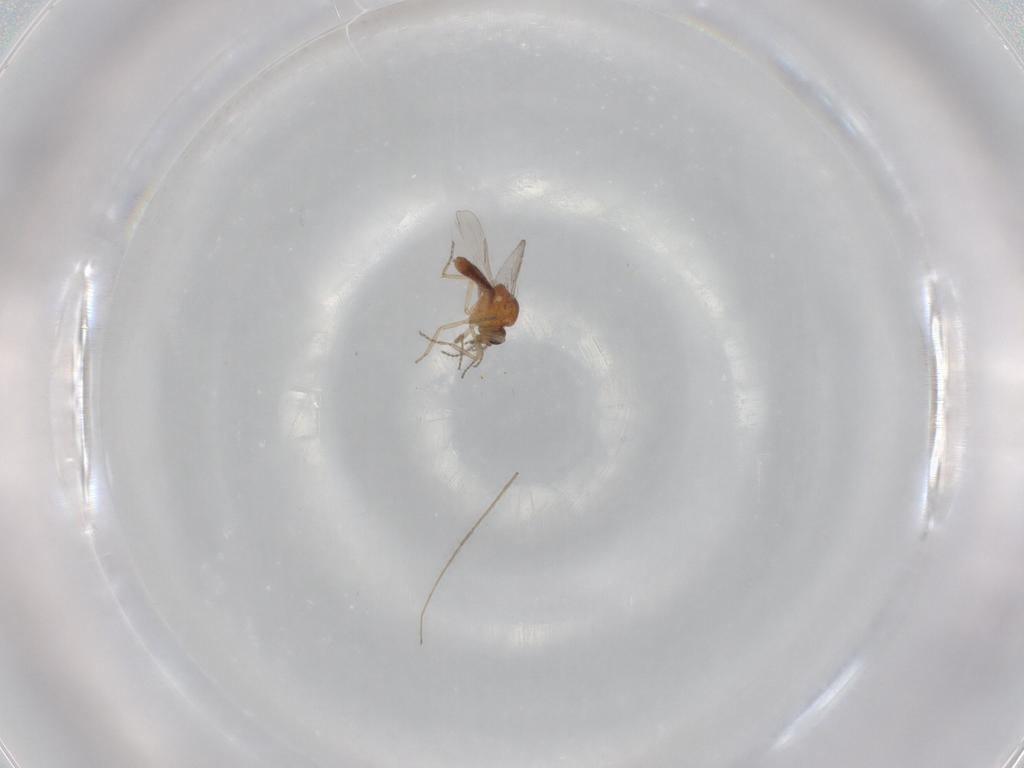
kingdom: Animalia
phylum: Arthropoda
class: Insecta
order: Diptera
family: Ceratopogonidae
